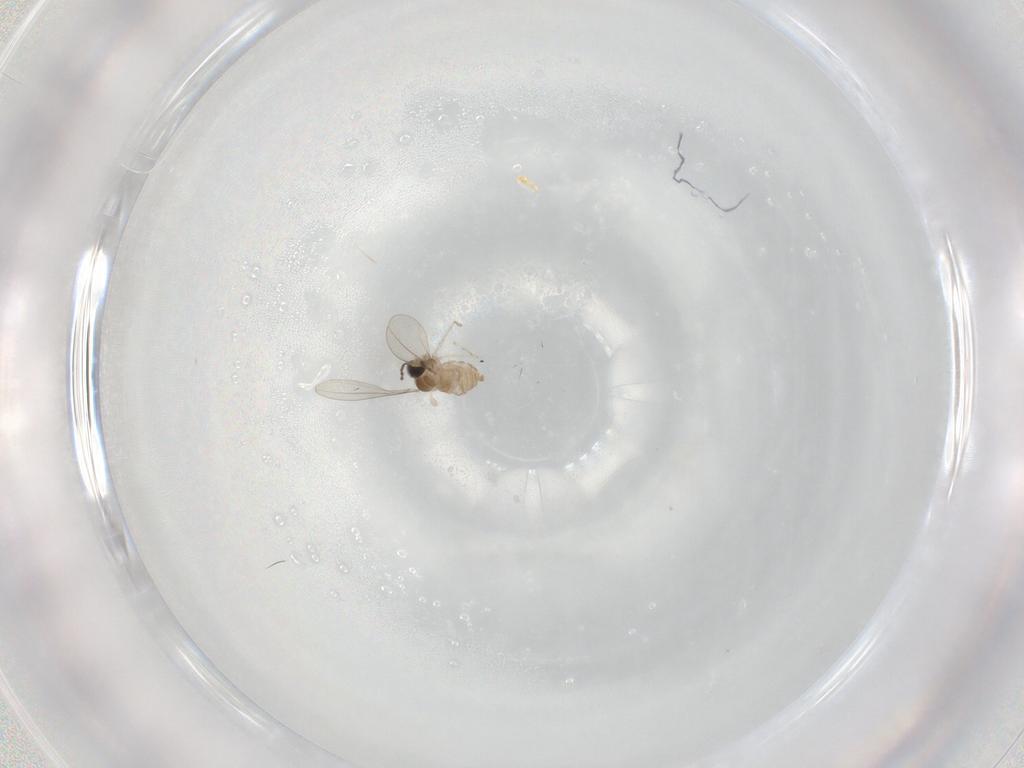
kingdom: Animalia
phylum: Arthropoda
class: Insecta
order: Diptera
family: Cecidomyiidae
